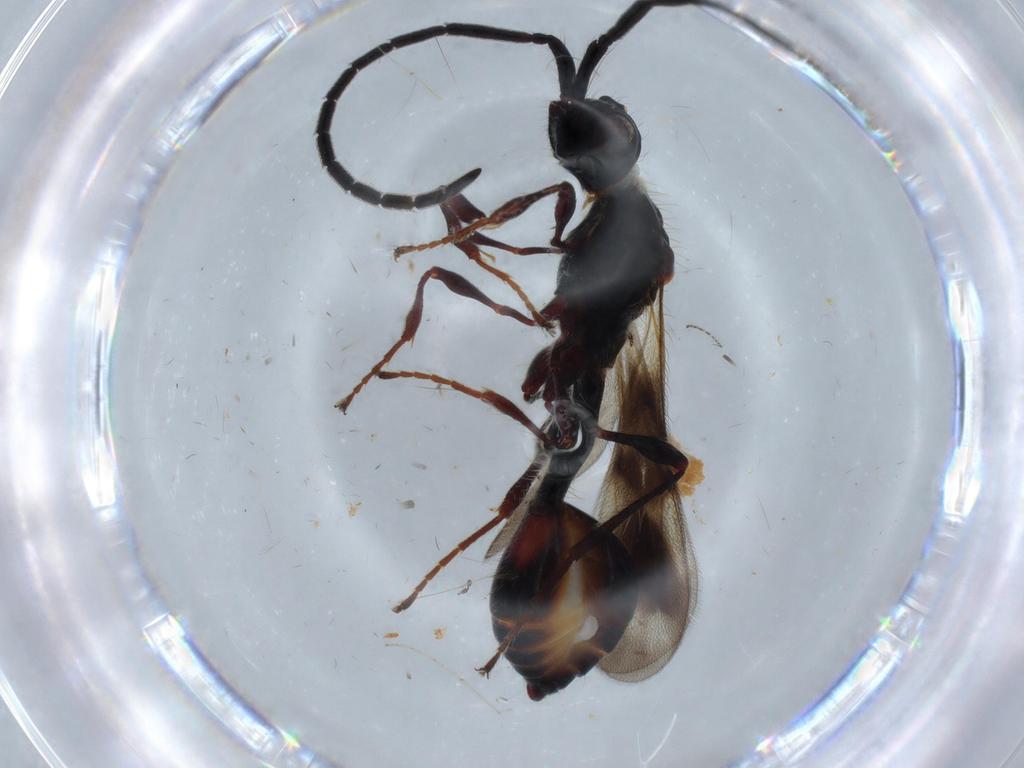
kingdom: Animalia
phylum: Arthropoda
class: Insecta
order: Hymenoptera
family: Diapriidae
